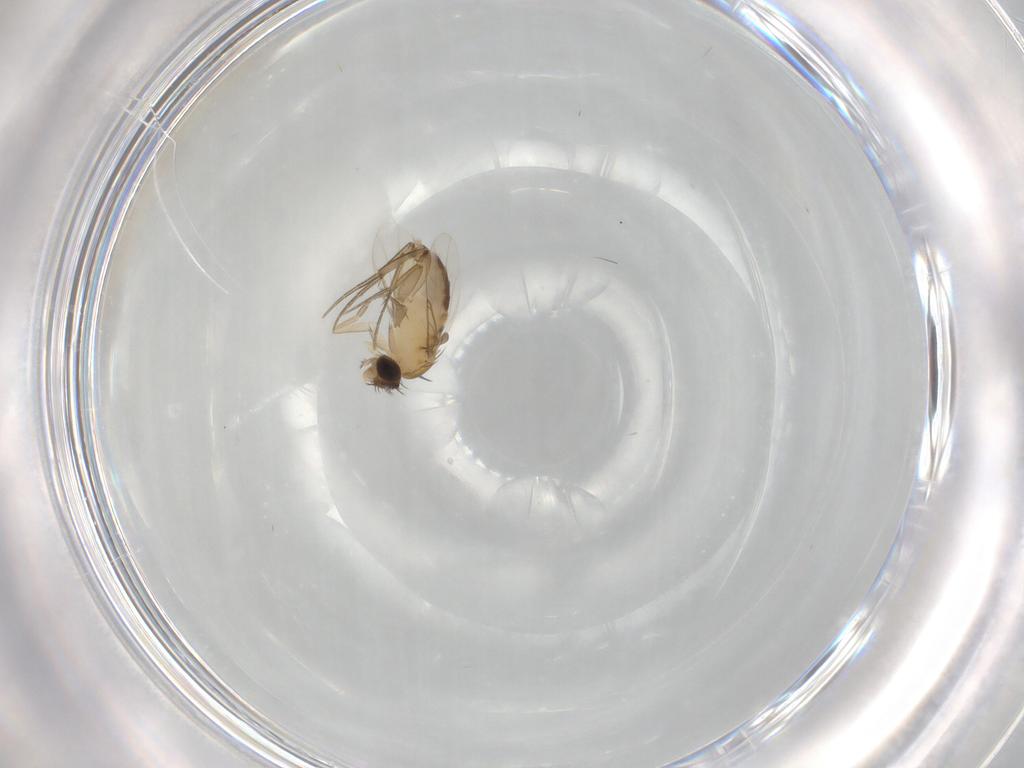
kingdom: Animalia
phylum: Arthropoda
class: Insecta
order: Diptera
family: Phoridae
